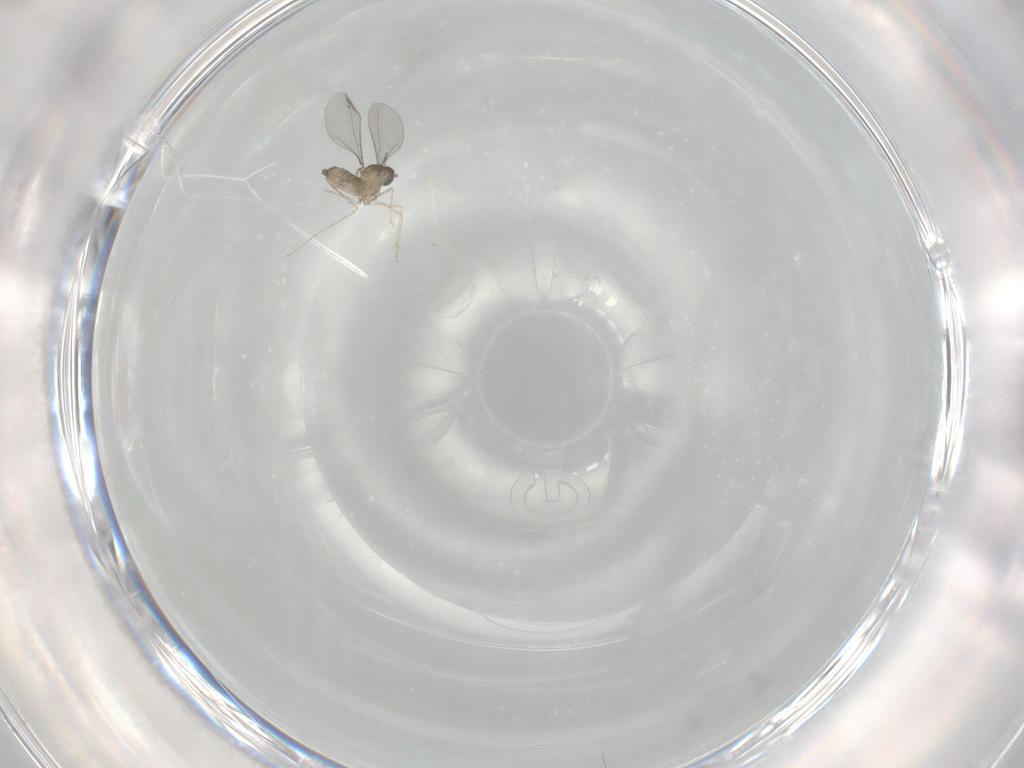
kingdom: Animalia
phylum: Arthropoda
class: Insecta
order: Diptera
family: Cecidomyiidae
